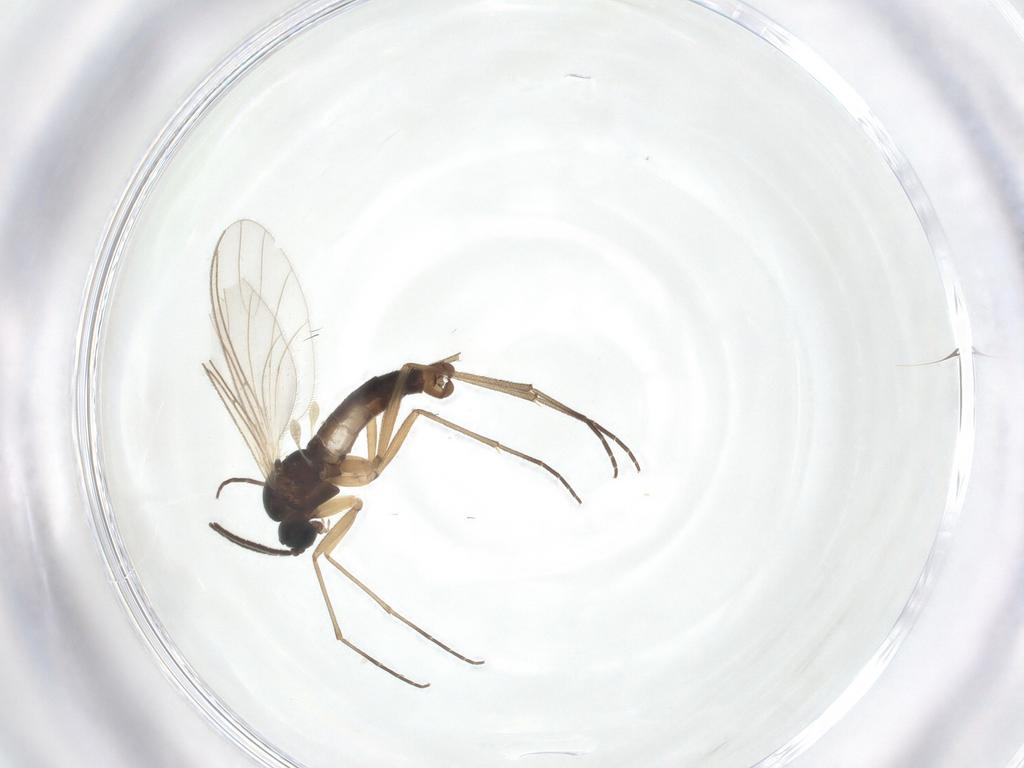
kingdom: Animalia
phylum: Arthropoda
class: Insecta
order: Diptera
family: Sciaridae
